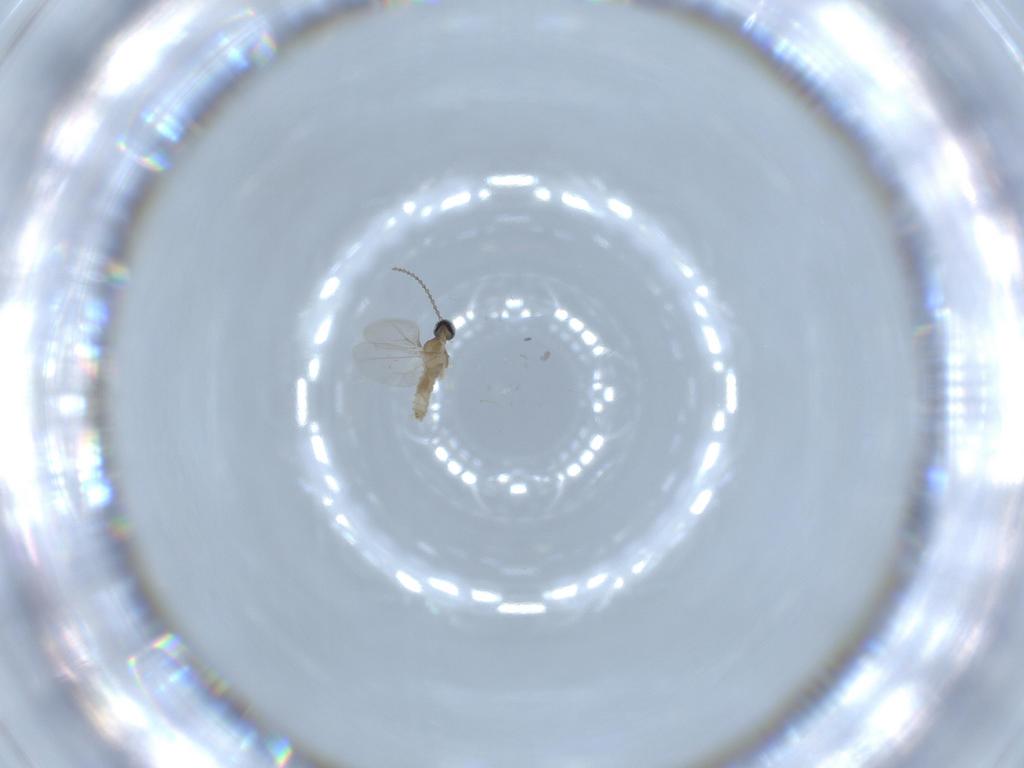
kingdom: Animalia
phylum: Arthropoda
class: Insecta
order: Diptera
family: Cecidomyiidae
